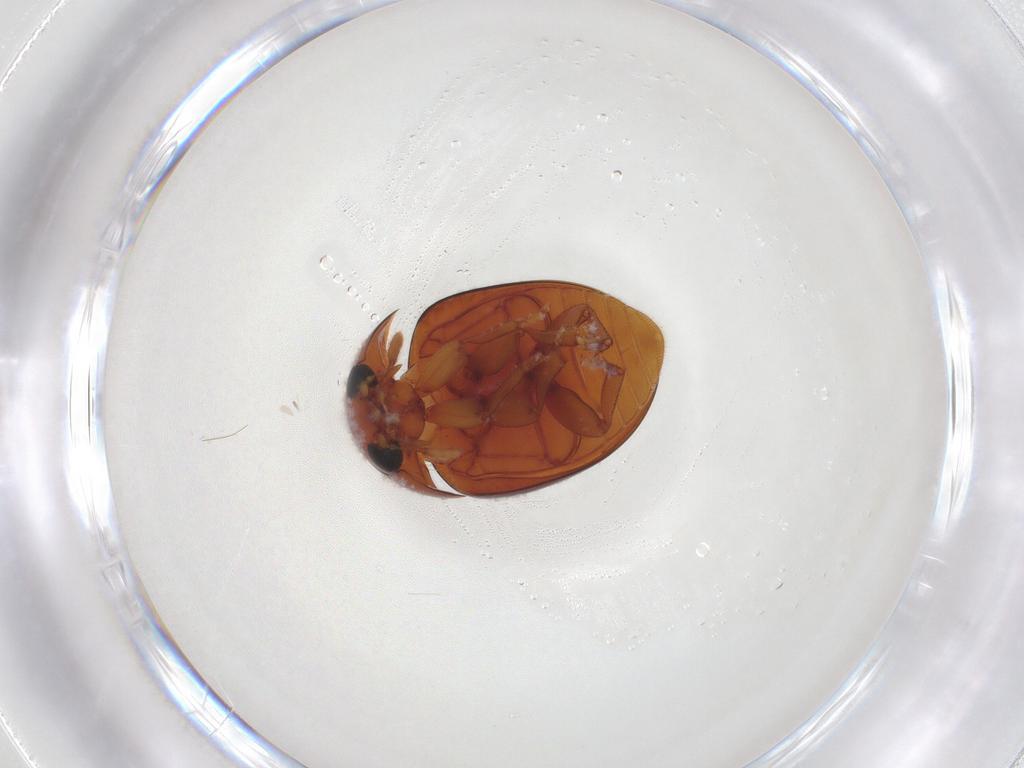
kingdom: Animalia
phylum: Arthropoda
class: Insecta
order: Coleoptera
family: Phalacridae
